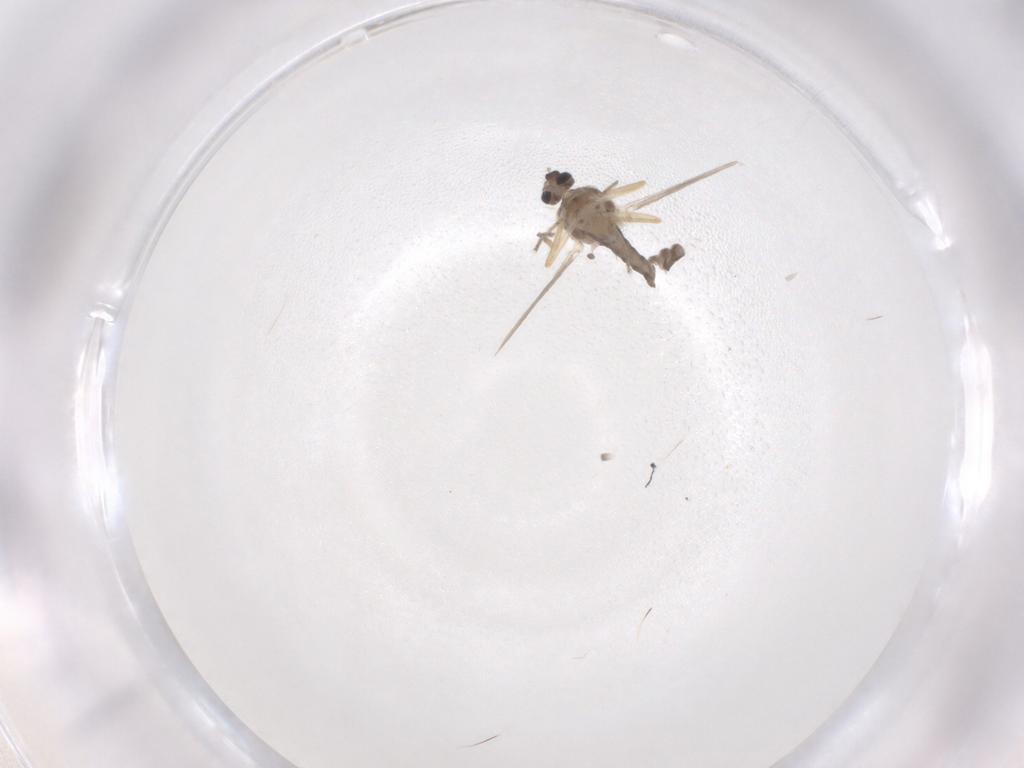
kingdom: Animalia
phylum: Arthropoda
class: Insecta
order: Diptera
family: Ceratopogonidae
